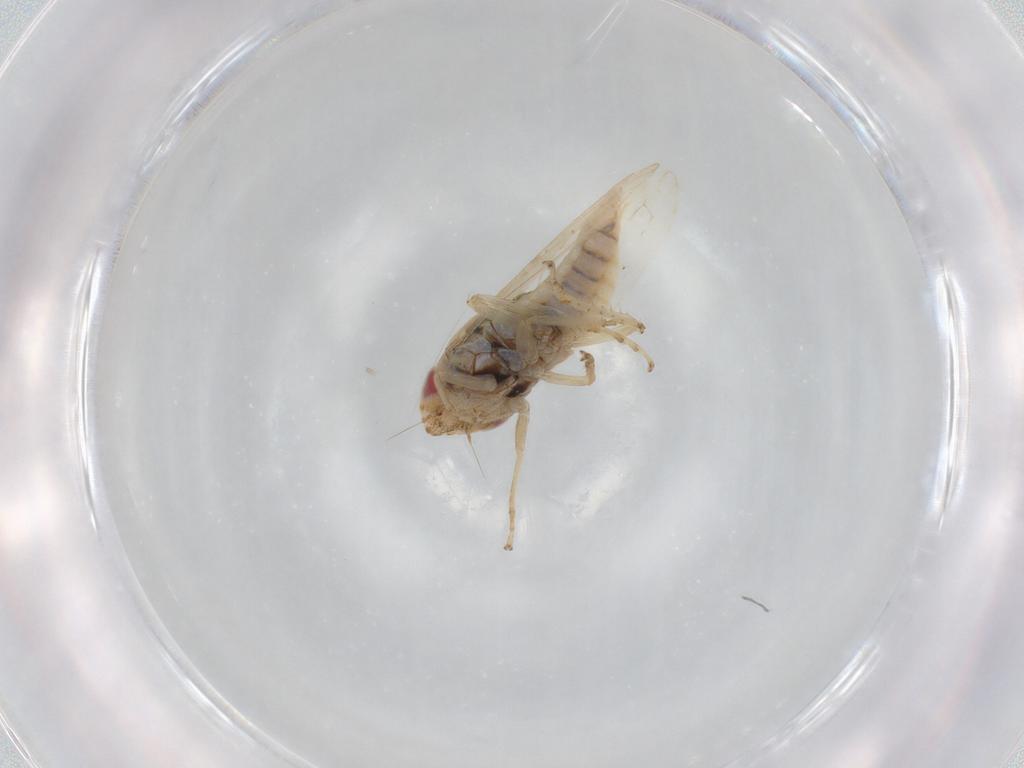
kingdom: Animalia
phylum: Arthropoda
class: Insecta
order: Hemiptera
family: Cicadellidae
